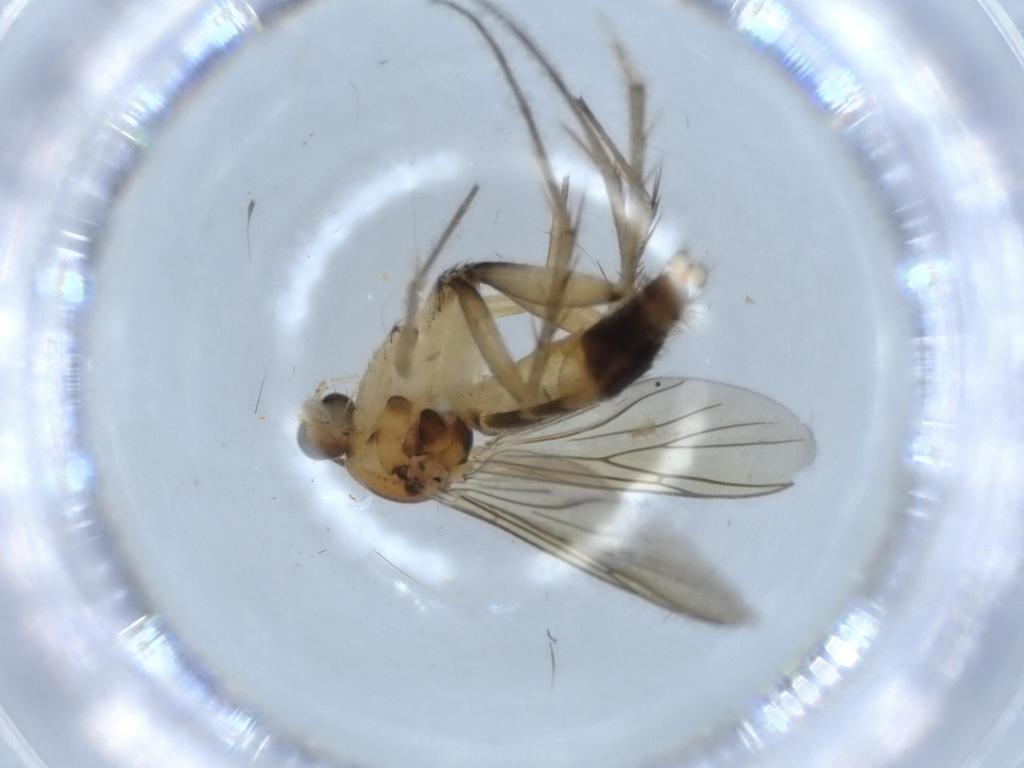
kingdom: Animalia
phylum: Arthropoda
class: Insecta
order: Diptera
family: Mycetophilidae
